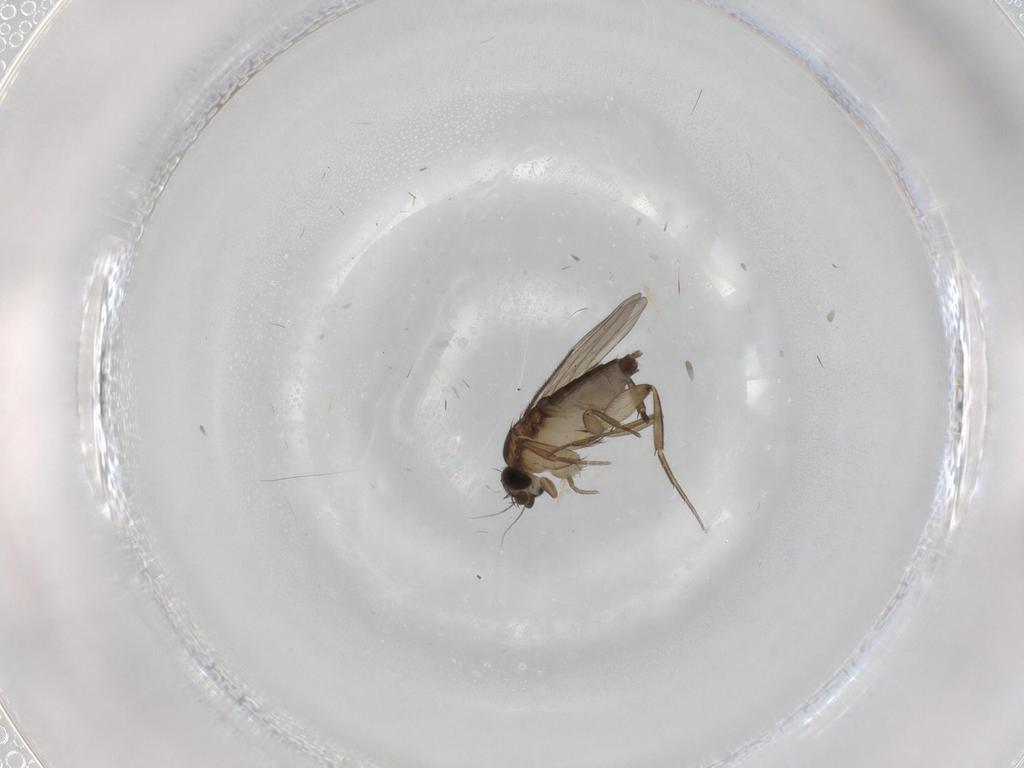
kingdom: Animalia
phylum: Arthropoda
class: Insecta
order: Diptera
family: Phoridae
